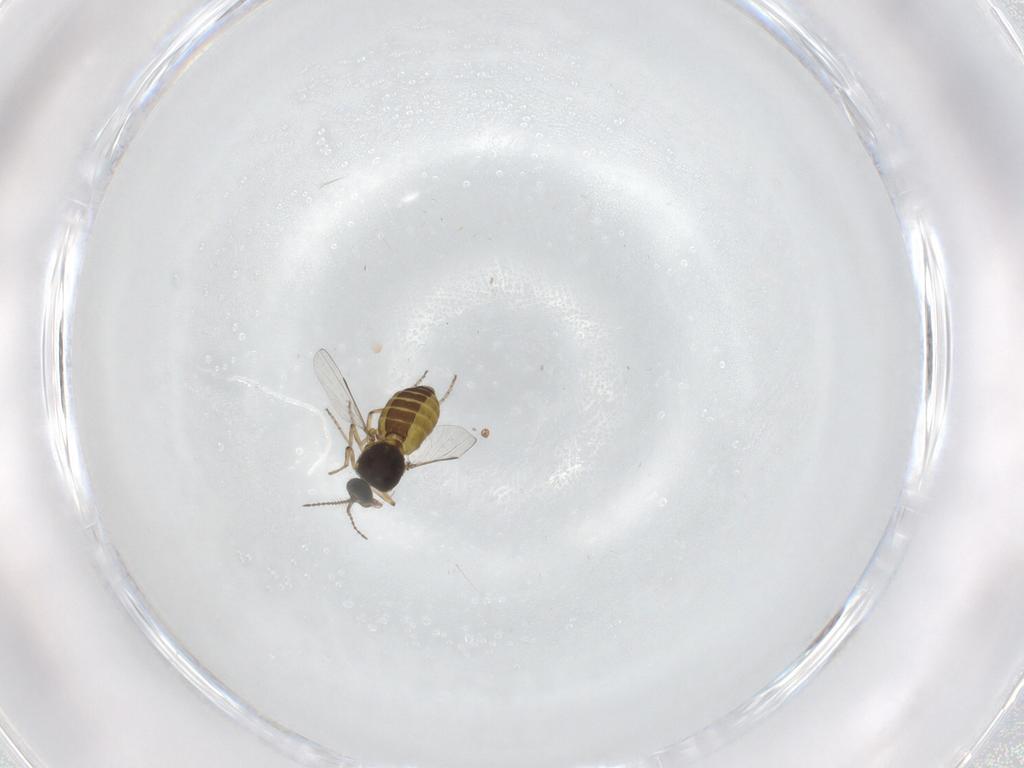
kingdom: Animalia
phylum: Arthropoda
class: Insecta
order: Diptera
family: Ceratopogonidae
